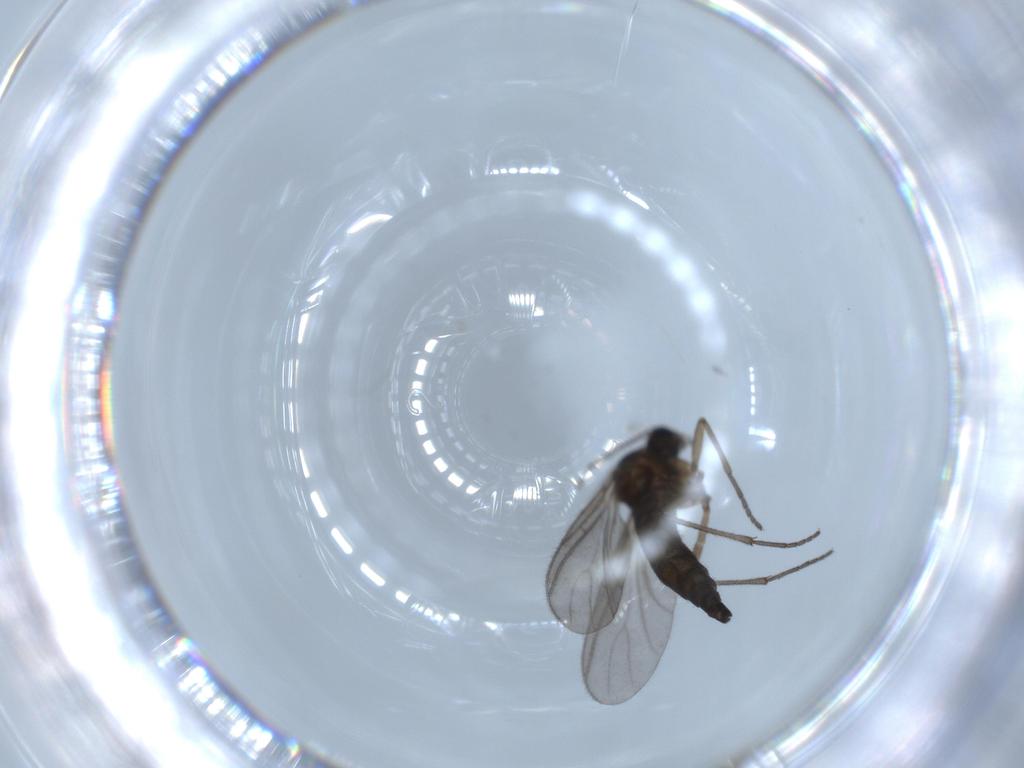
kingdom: Animalia
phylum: Arthropoda
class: Insecta
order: Diptera
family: Sciaridae
